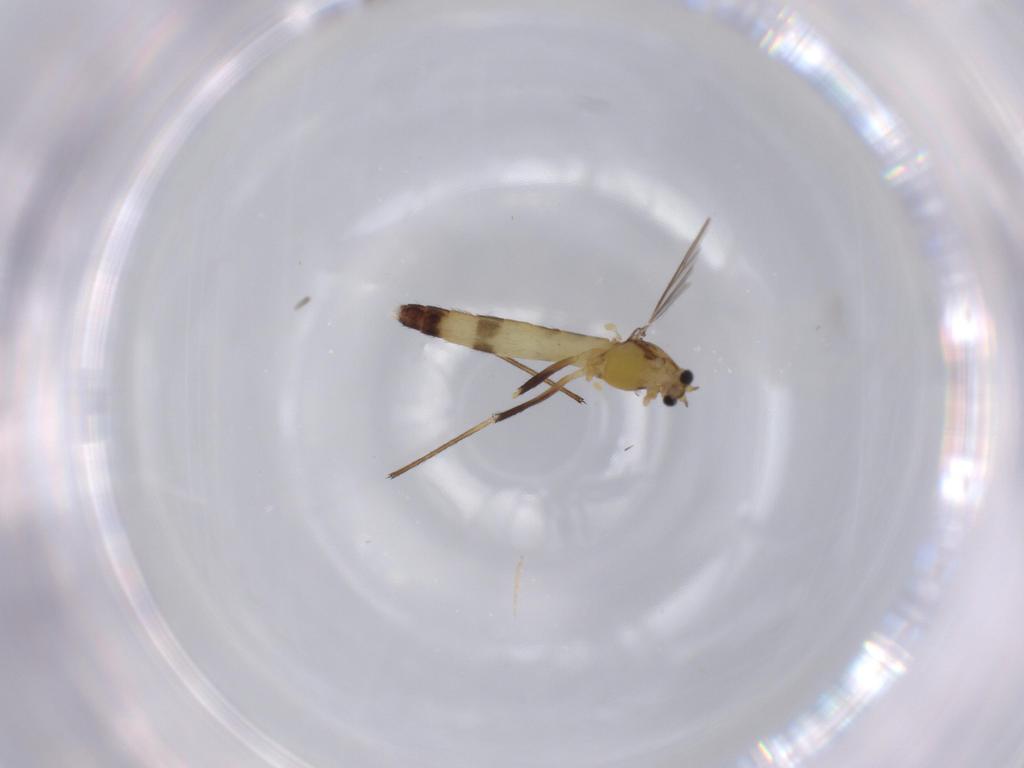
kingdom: Animalia
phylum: Arthropoda
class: Insecta
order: Diptera
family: Chironomidae
